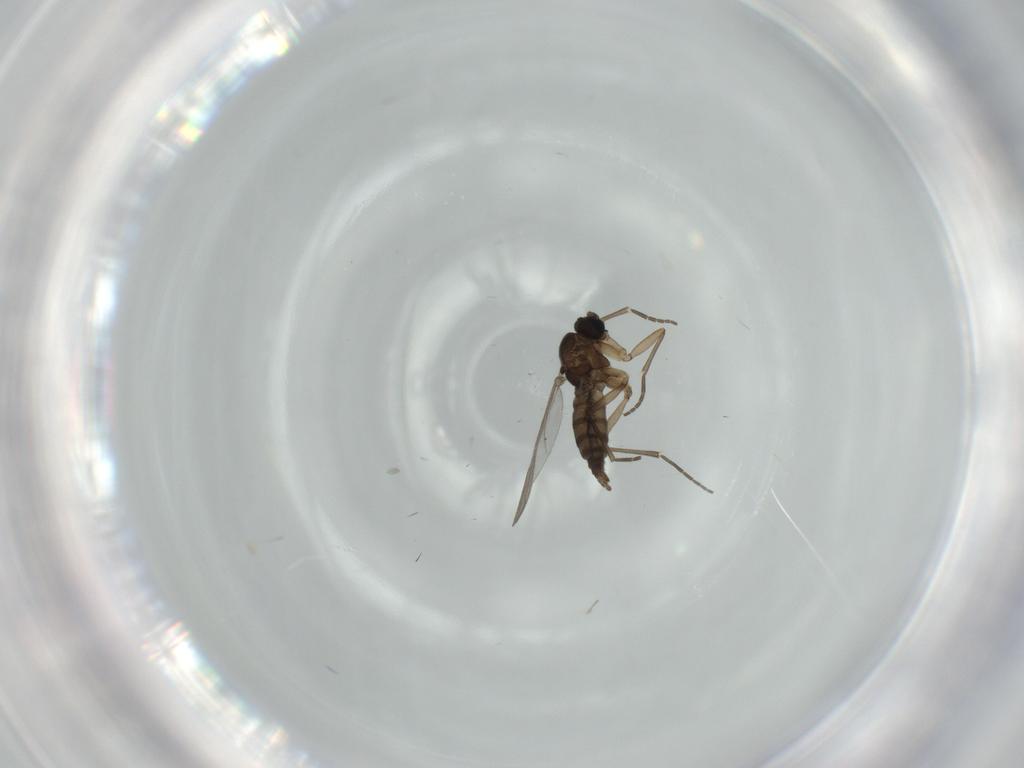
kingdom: Animalia
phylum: Arthropoda
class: Insecta
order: Diptera
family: Sciaridae
